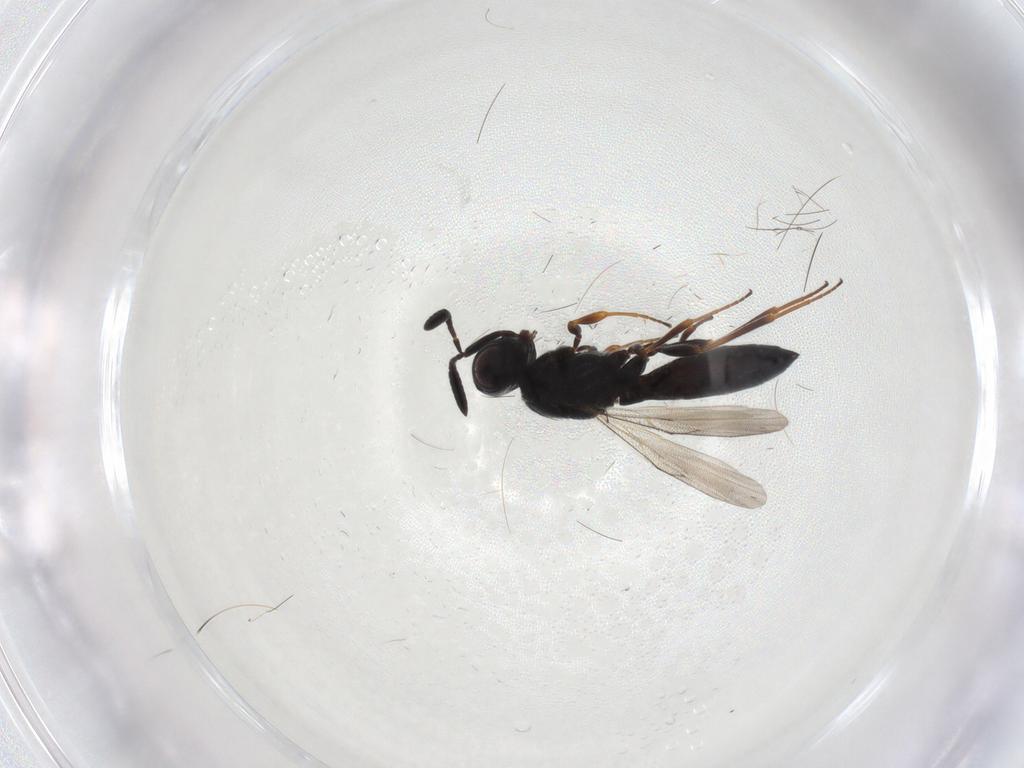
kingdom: Animalia
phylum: Arthropoda
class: Insecta
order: Hymenoptera
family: Scelionidae
